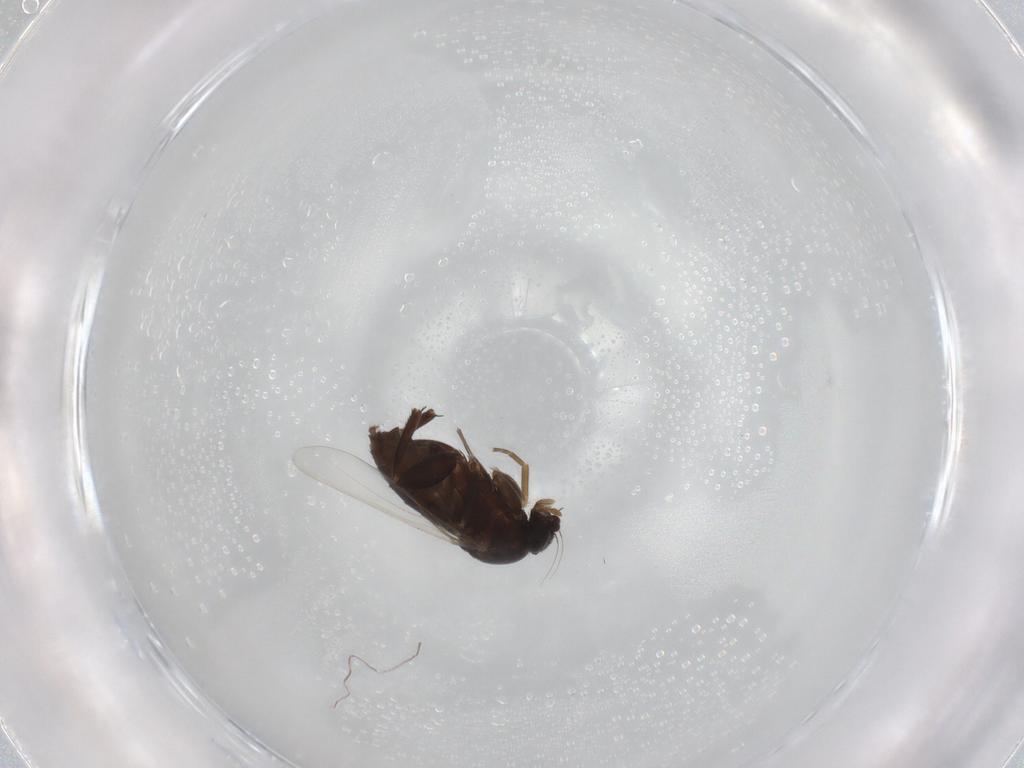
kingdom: Animalia
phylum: Arthropoda
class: Insecta
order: Diptera
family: Phoridae
